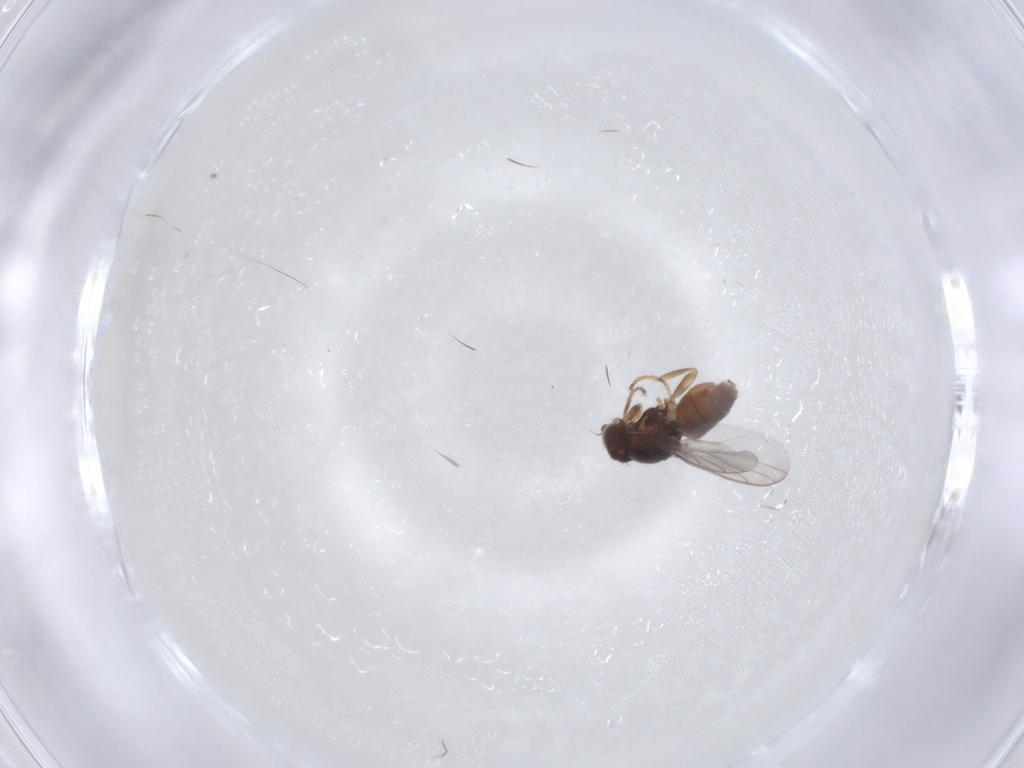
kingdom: Animalia
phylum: Arthropoda
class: Insecta
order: Diptera
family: Chloropidae
